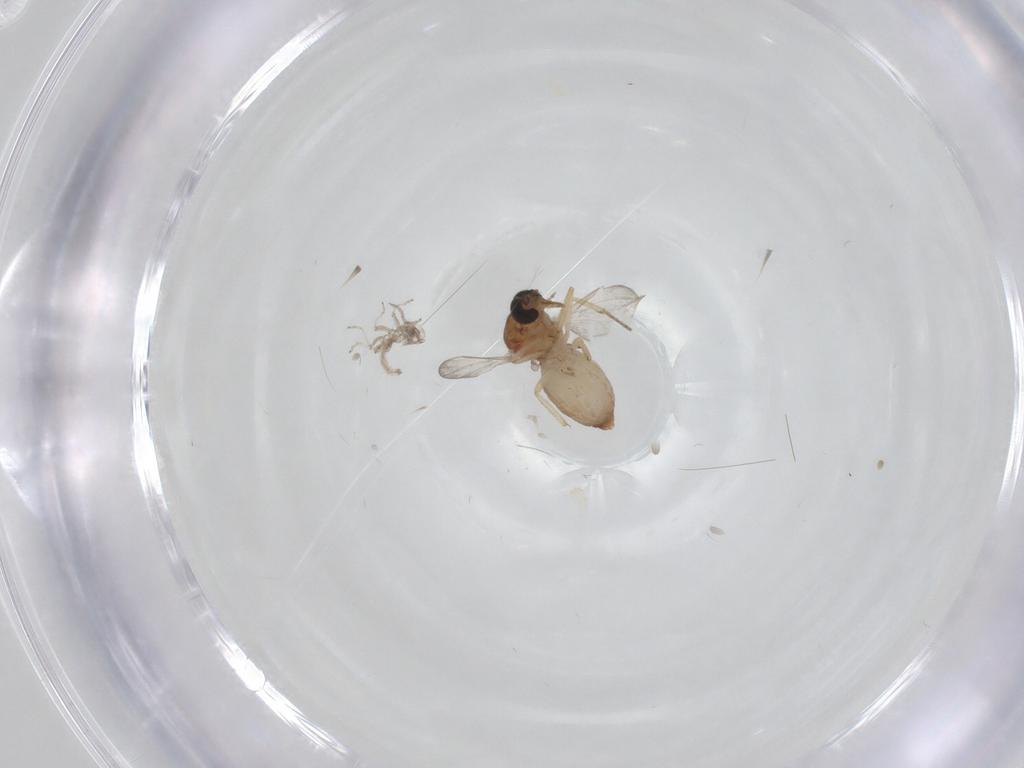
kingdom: Animalia
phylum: Arthropoda
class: Insecta
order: Diptera
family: Ceratopogonidae
